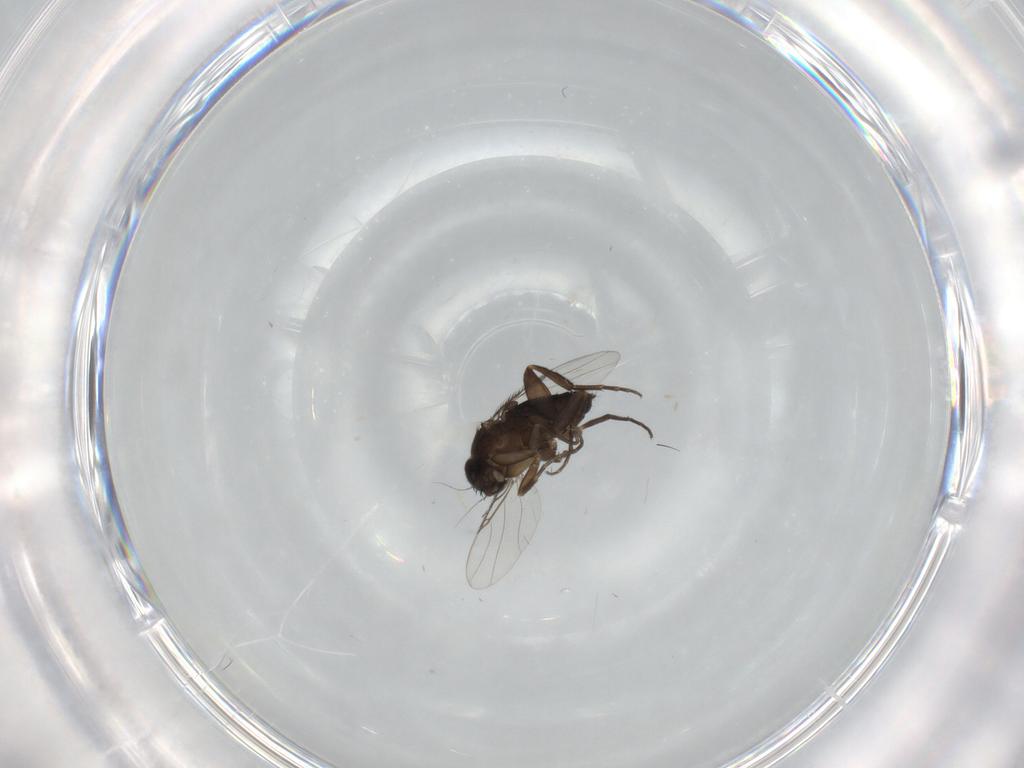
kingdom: Animalia
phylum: Arthropoda
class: Insecta
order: Diptera
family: Phoridae
